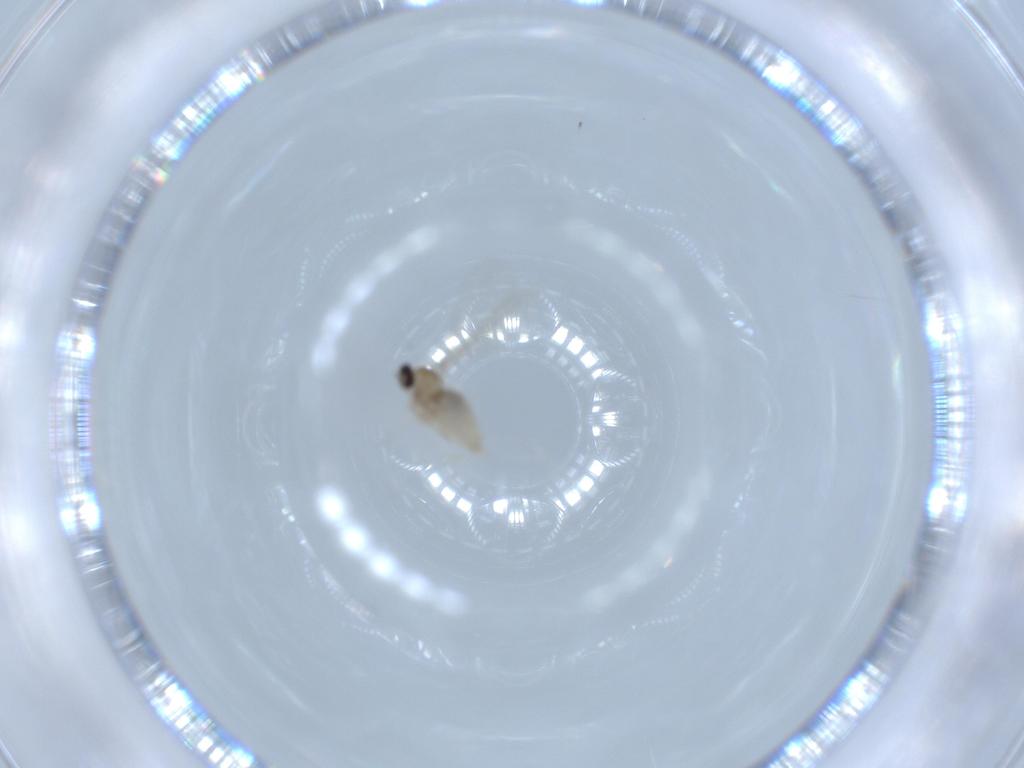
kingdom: Animalia
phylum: Arthropoda
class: Insecta
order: Diptera
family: Cecidomyiidae
